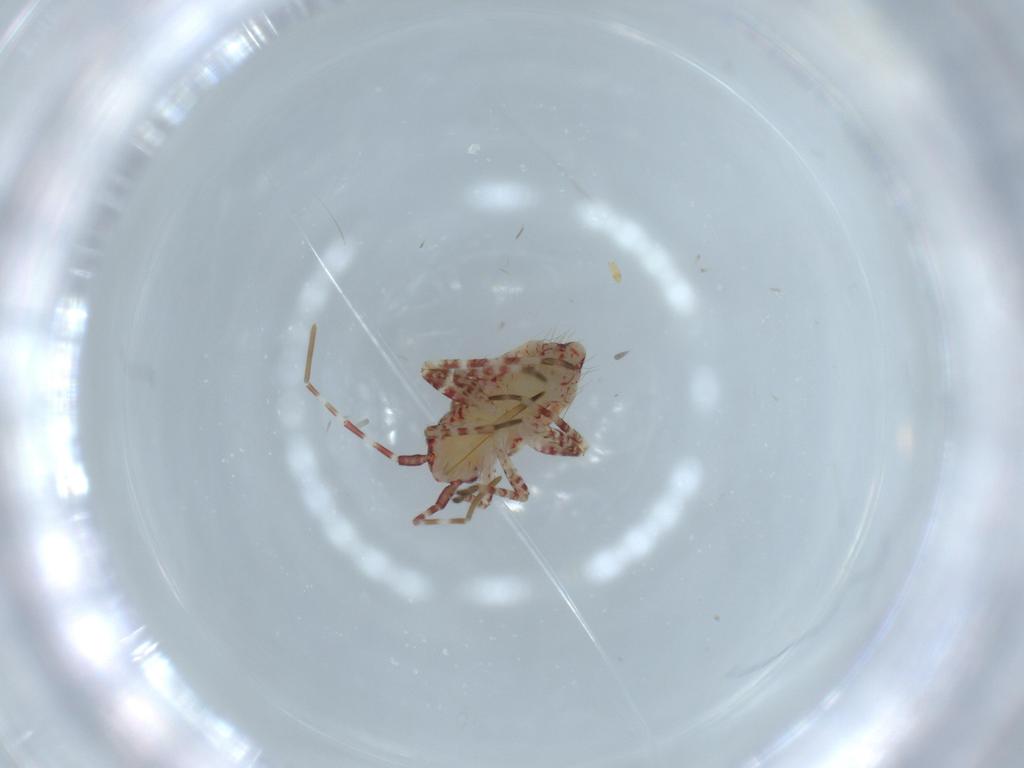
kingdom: Animalia
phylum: Arthropoda
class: Insecta
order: Hemiptera
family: Miridae
